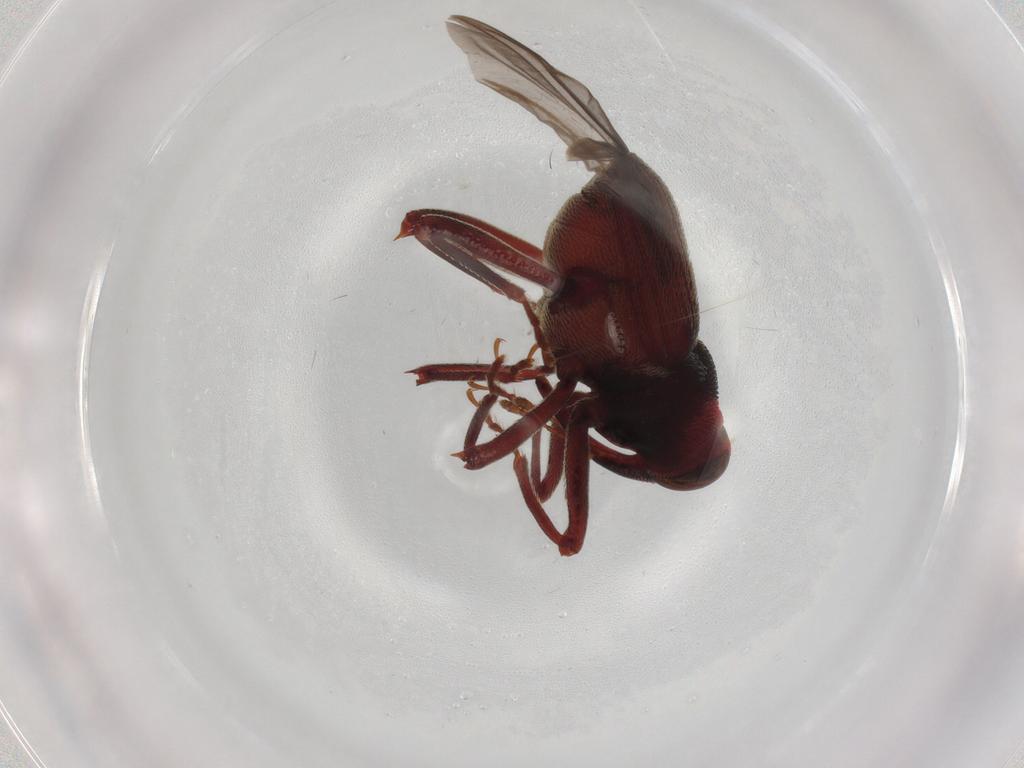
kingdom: Animalia
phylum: Arthropoda
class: Insecta
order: Coleoptera
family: Curculionidae
